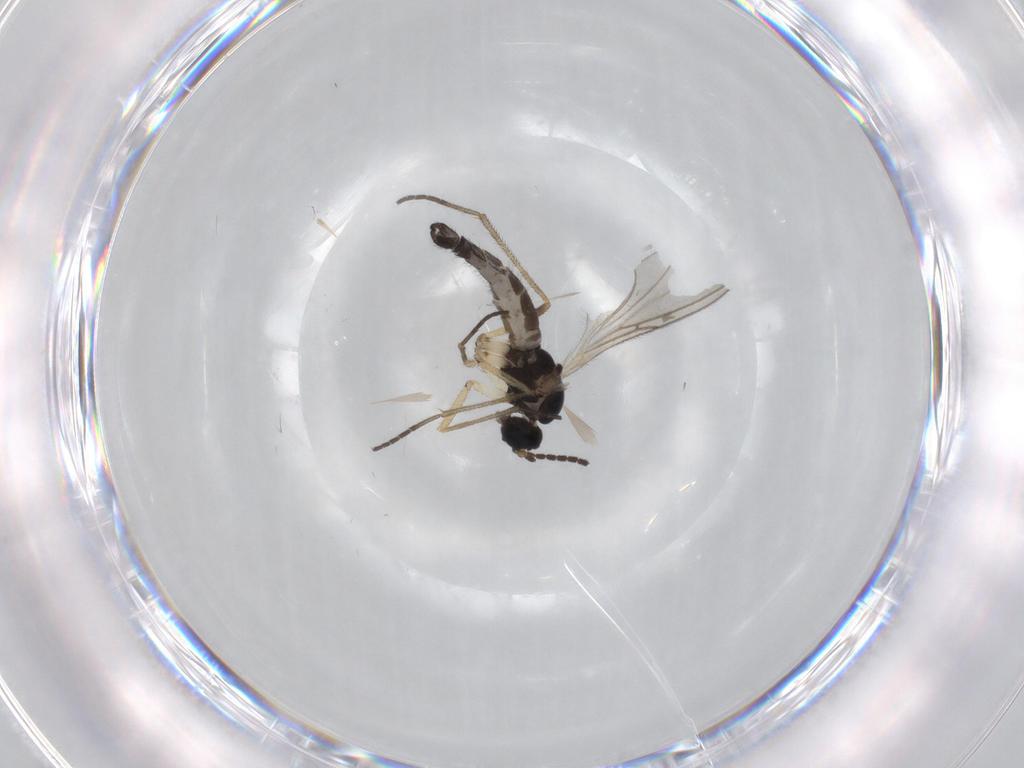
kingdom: Animalia
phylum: Arthropoda
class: Insecta
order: Diptera
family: Sciaridae
